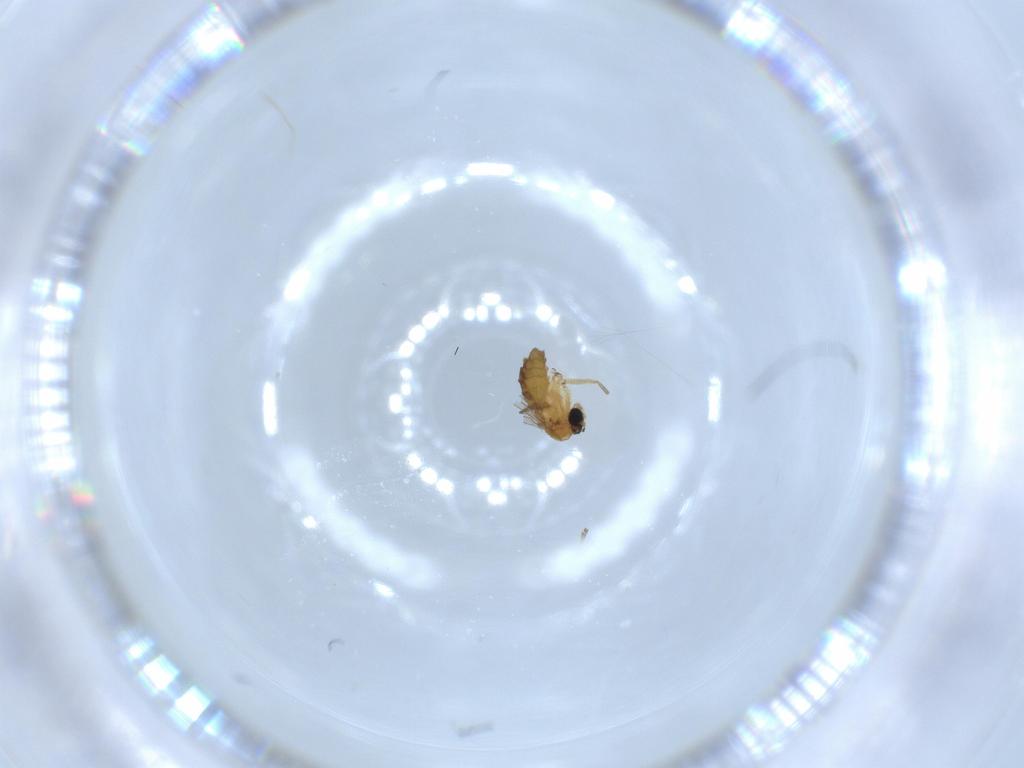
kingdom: Animalia
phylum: Arthropoda
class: Insecta
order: Diptera
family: Sciaridae
